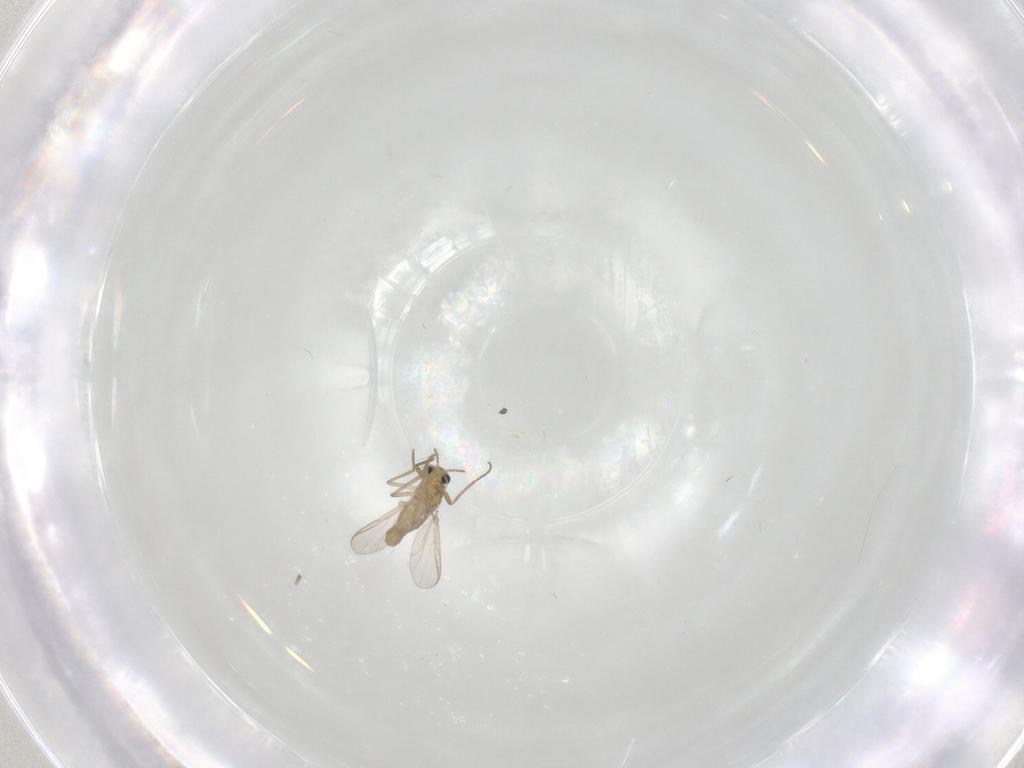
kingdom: Animalia
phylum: Arthropoda
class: Insecta
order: Diptera
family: Chironomidae
